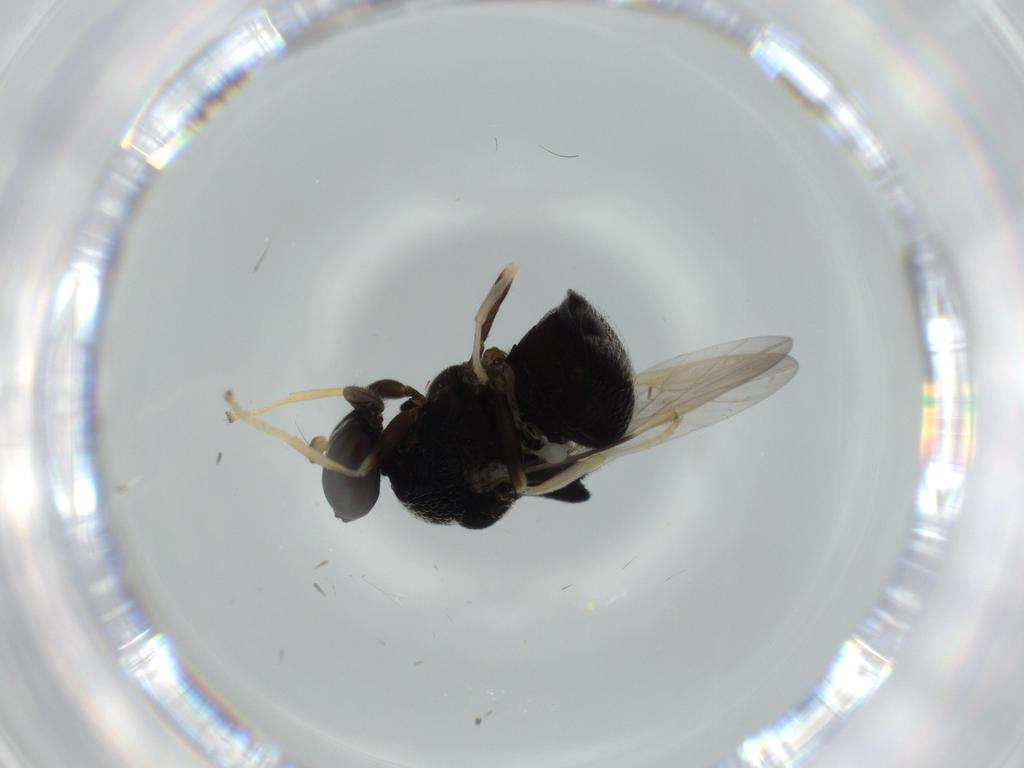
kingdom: Animalia
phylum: Arthropoda
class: Insecta
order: Diptera
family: Stratiomyidae
